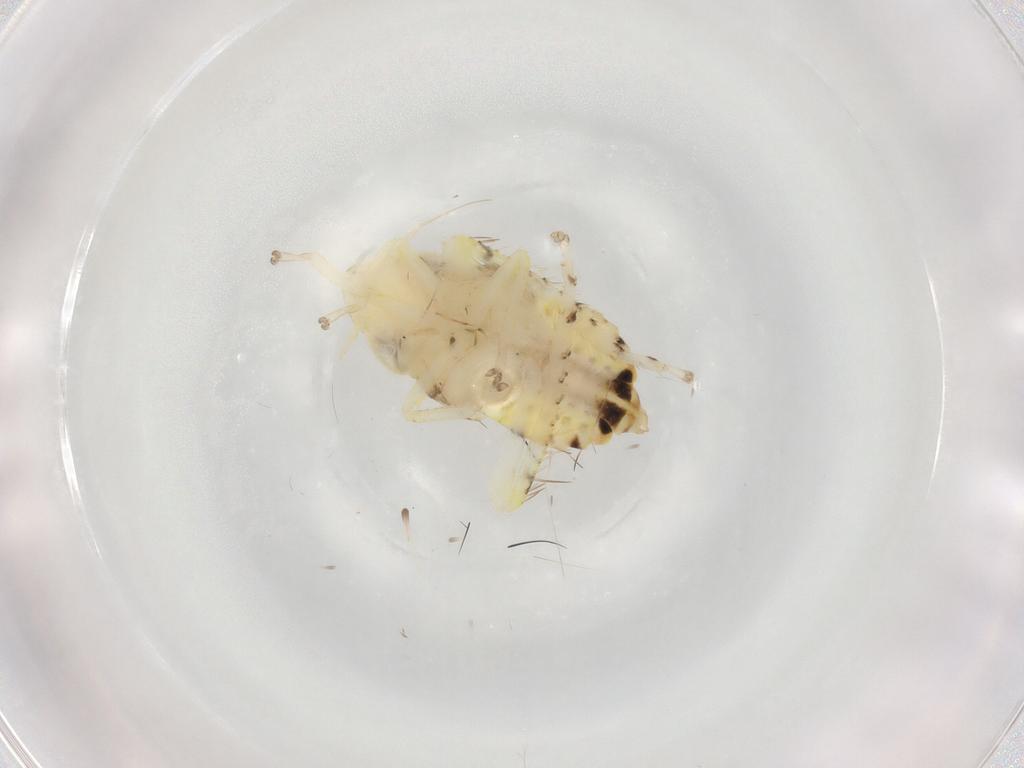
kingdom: Animalia
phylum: Arthropoda
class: Insecta
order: Hemiptera
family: Cicadellidae
